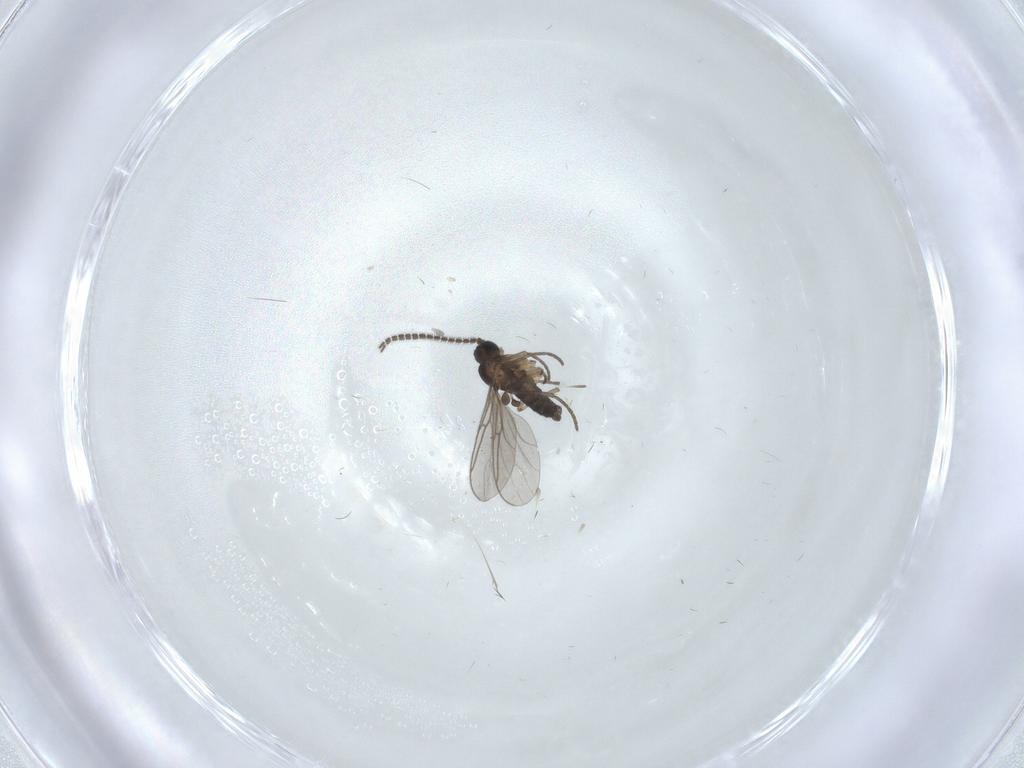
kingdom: Animalia
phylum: Arthropoda
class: Insecta
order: Diptera
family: Sciaridae
